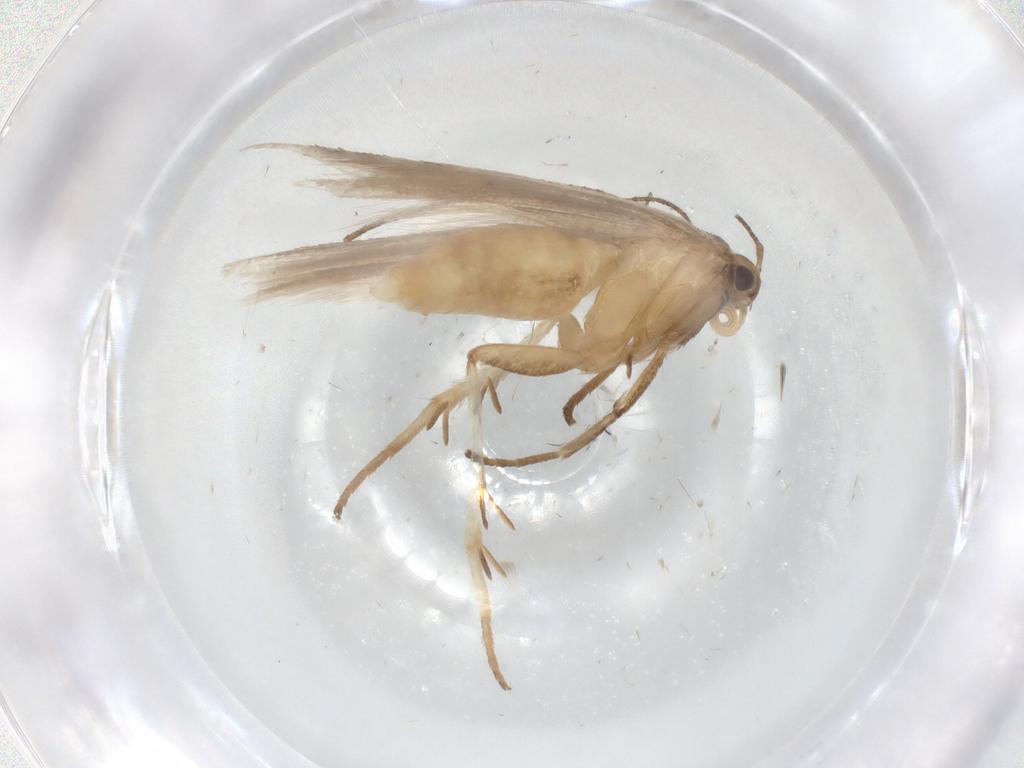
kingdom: Animalia
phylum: Arthropoda
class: Insecta
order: Lepidoptera
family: Gelechiidae
